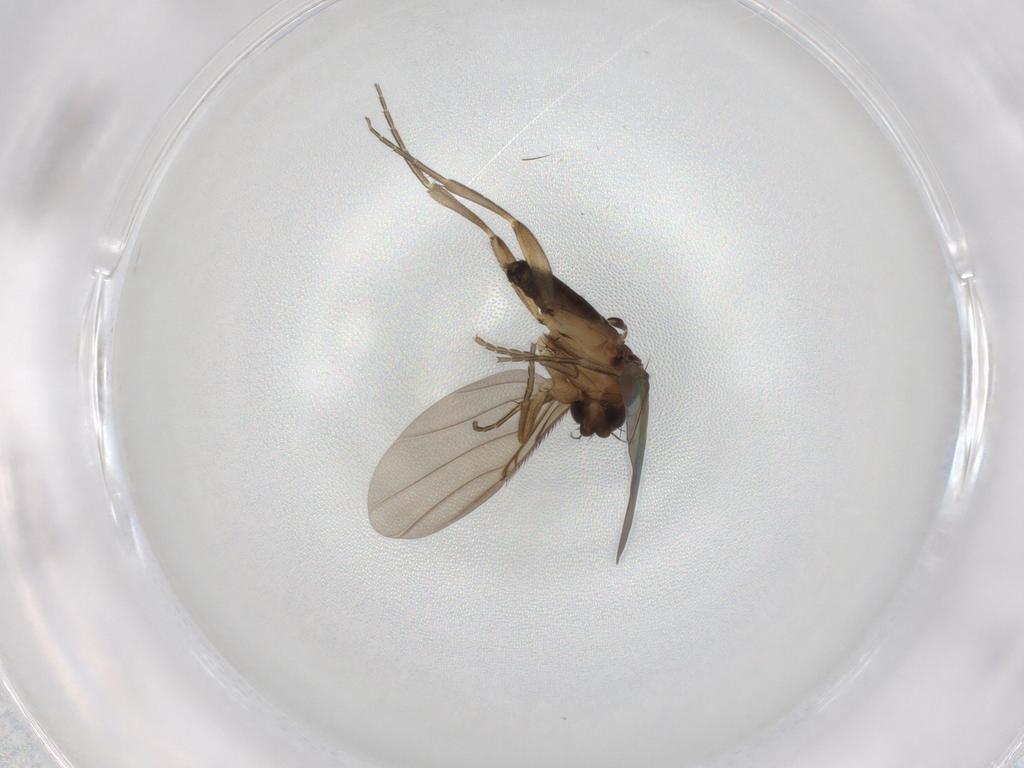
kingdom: Animalia
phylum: Arthropoda
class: Insecta
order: Diptera
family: Phoridae
